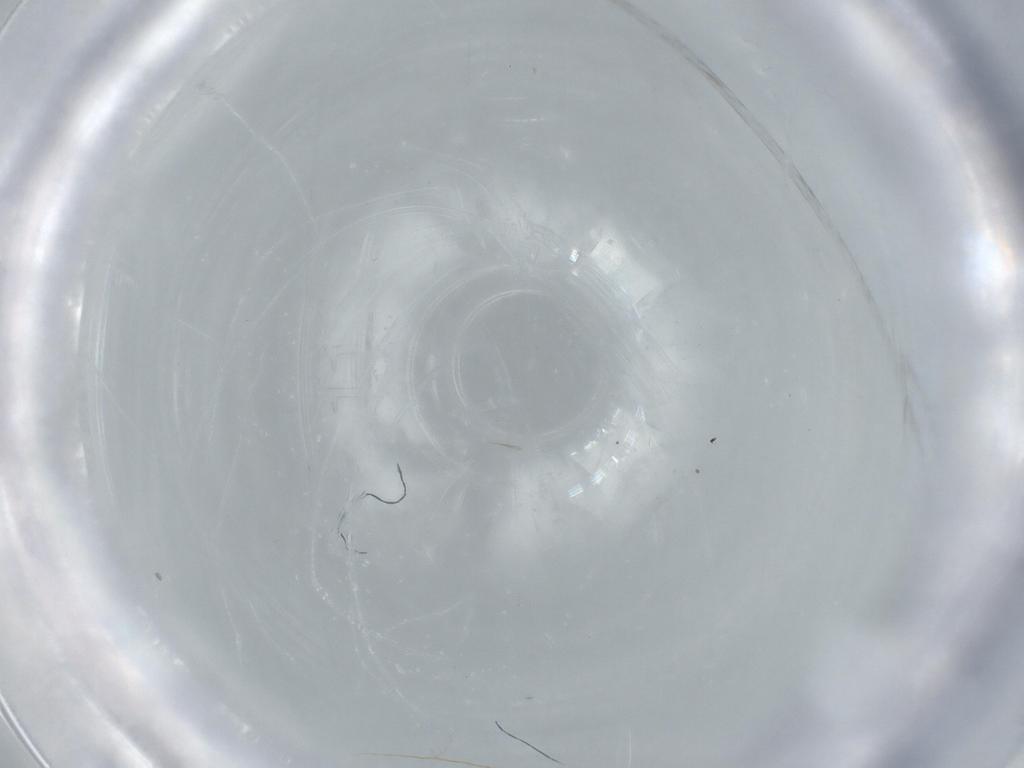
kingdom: Animalia
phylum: Arthropoda
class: Insecta
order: Coleoptera
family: Cleridae
